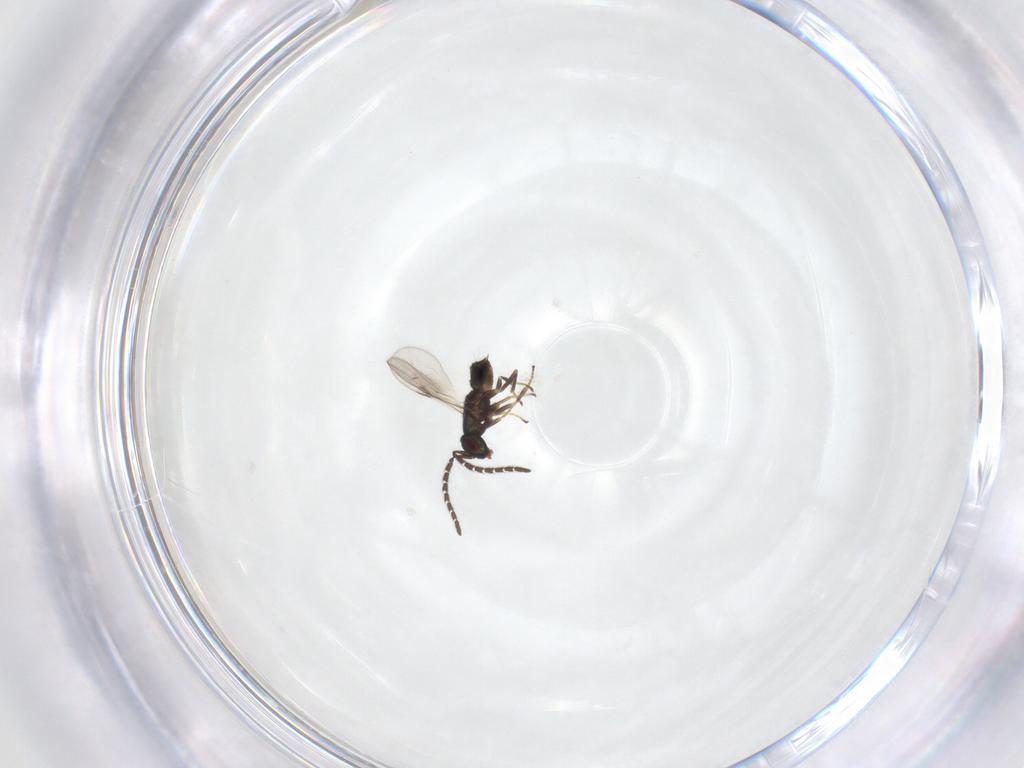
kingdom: Animalia
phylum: Arthropoda
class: Insecta
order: Hymenoptera
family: Encyrtidae
